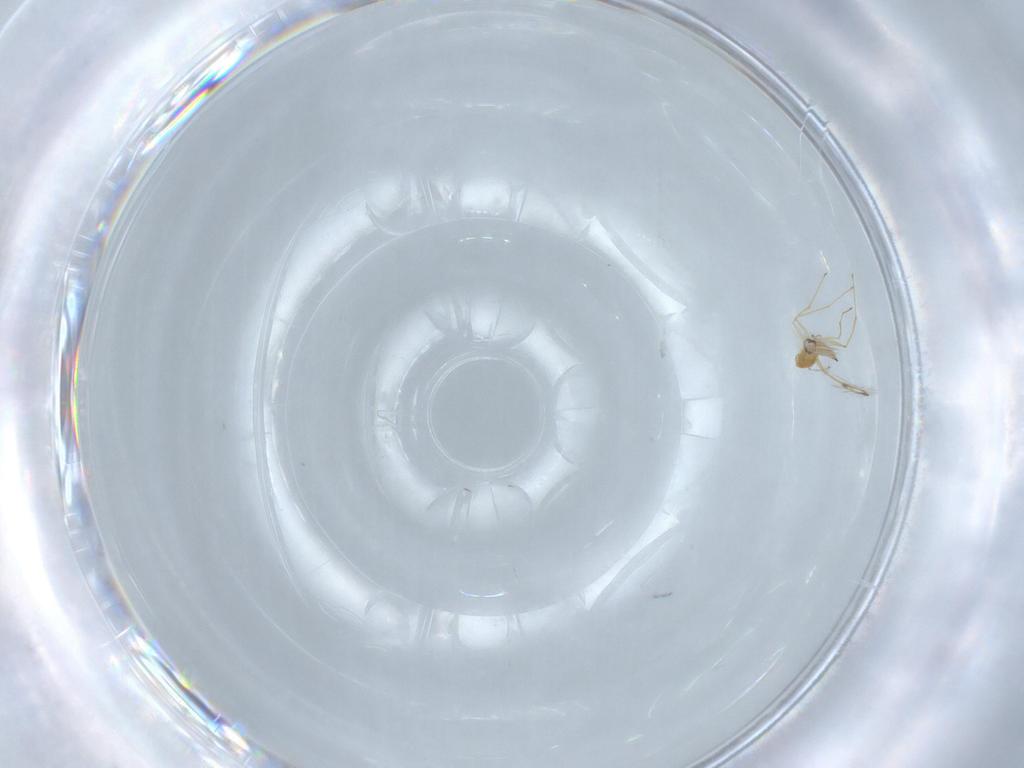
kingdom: Animalia
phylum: Arthropoda
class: Insecta
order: Hymenoptera
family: Mymaridae
